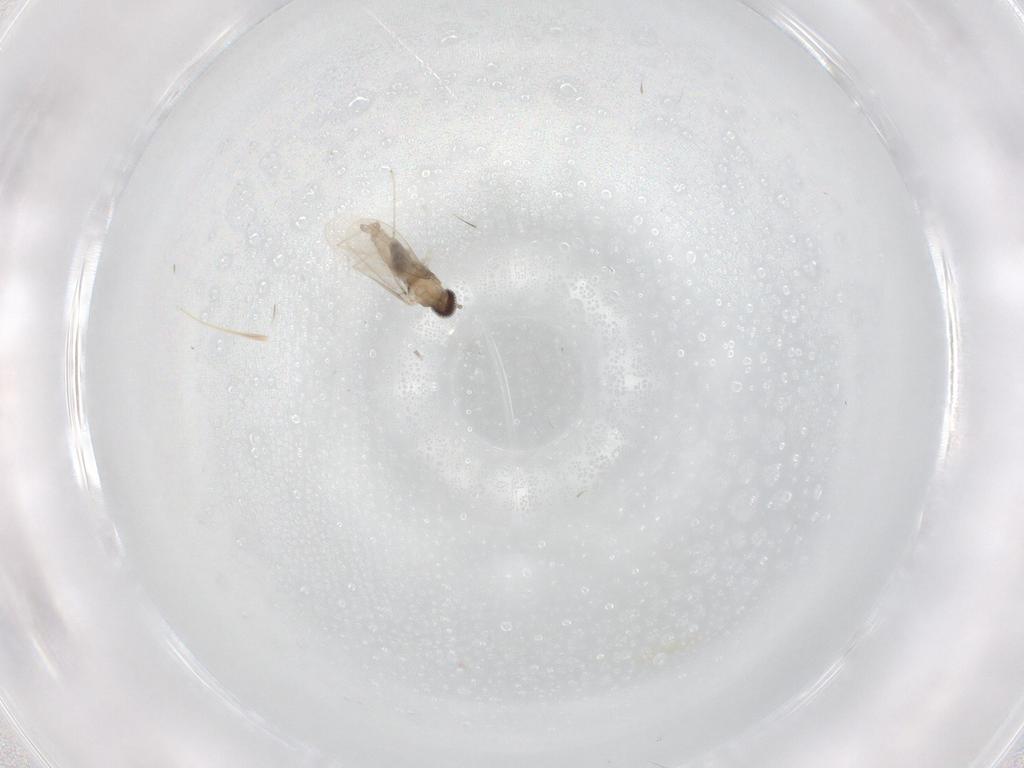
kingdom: Animalia
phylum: Arthropoda
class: Insecta
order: Diptera
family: Cecidomyiidae
